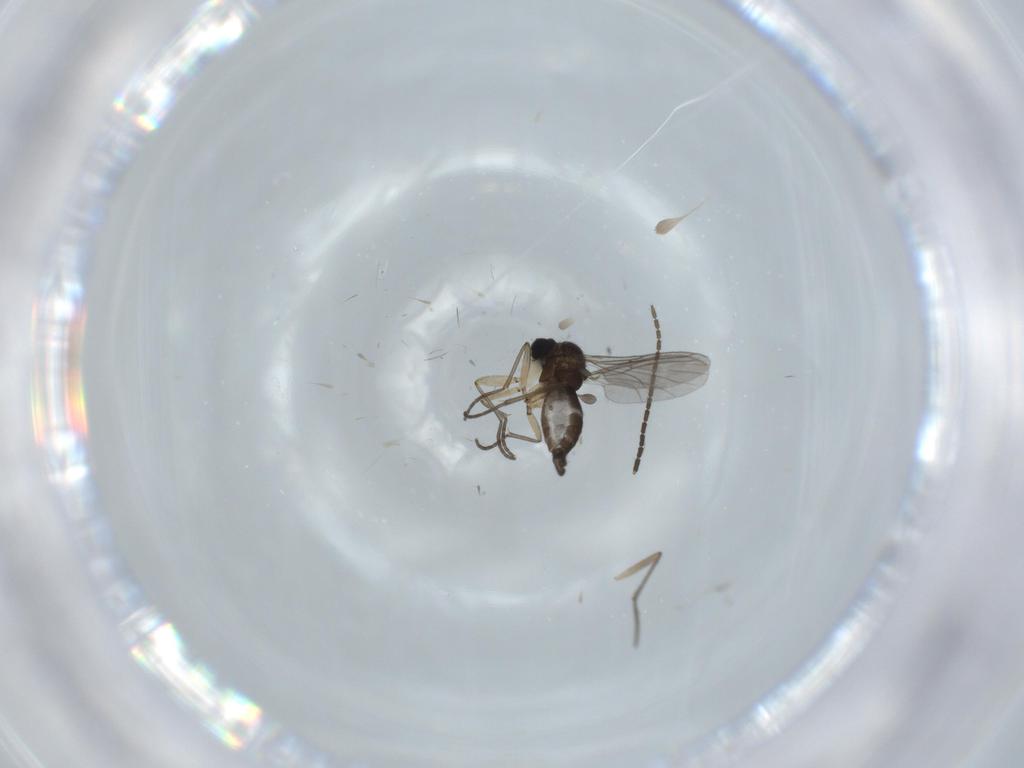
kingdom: Animalia
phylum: Arthropoda
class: Insecta
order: Diptera
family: Sciaridae
